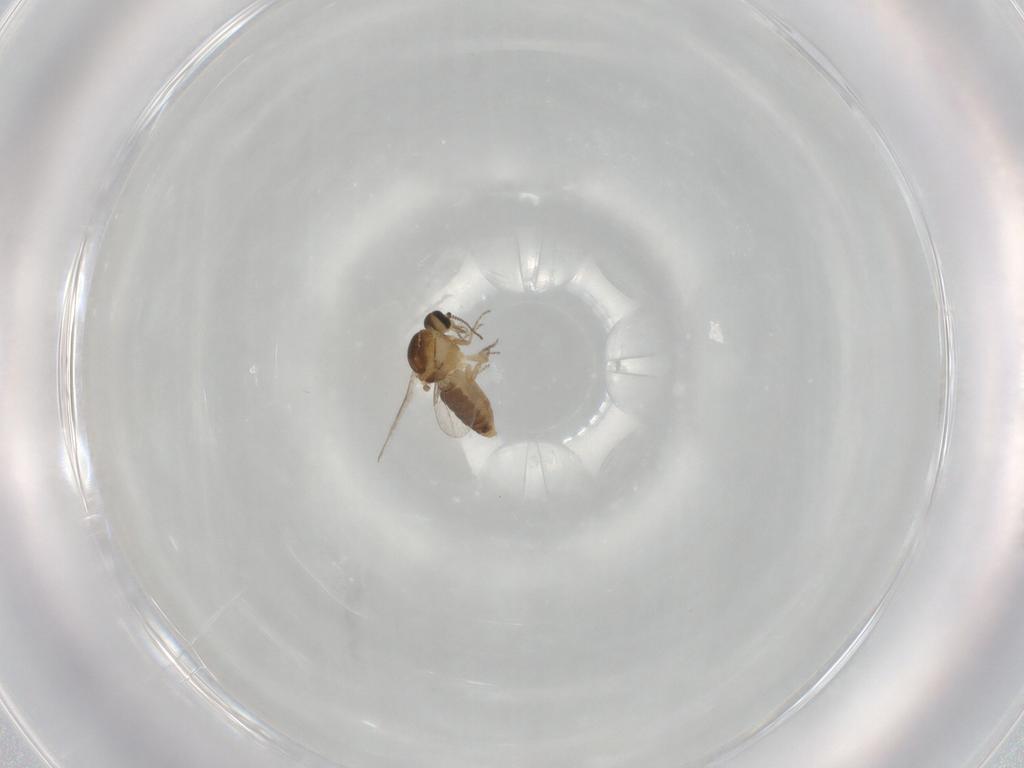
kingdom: Animalia
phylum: Arthropoda
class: Insecta
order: Diptera
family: Ceratopogonidae
